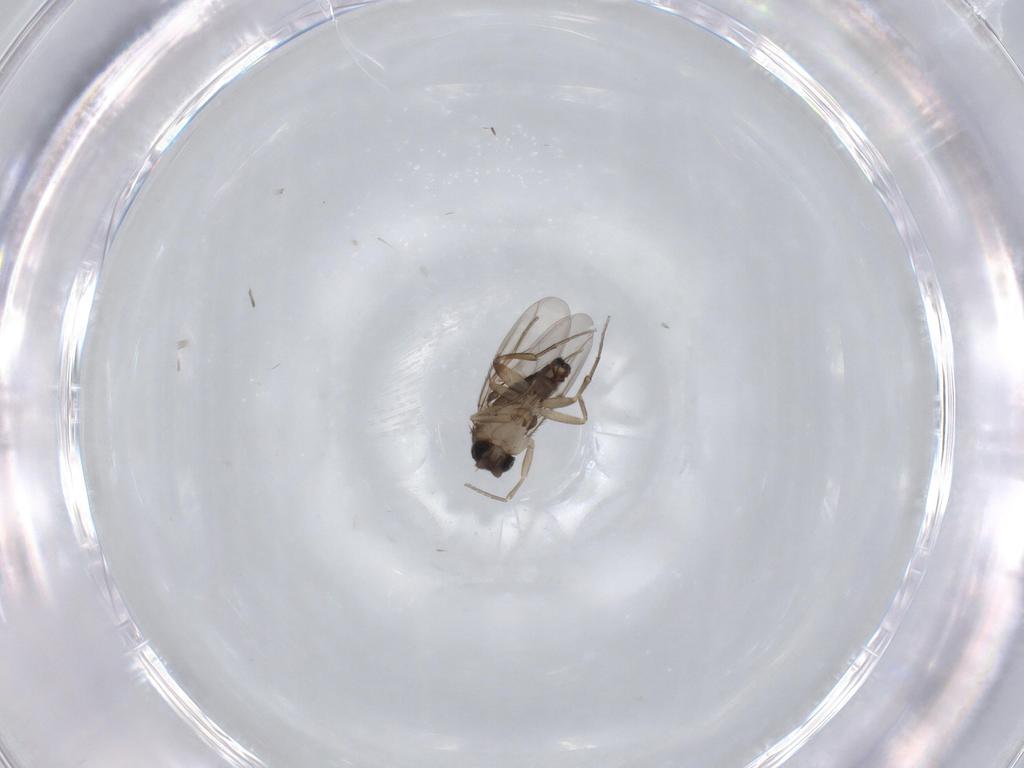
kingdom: Animalia
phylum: Arthropoda
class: Insecta
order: Diptera
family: Phoridae
